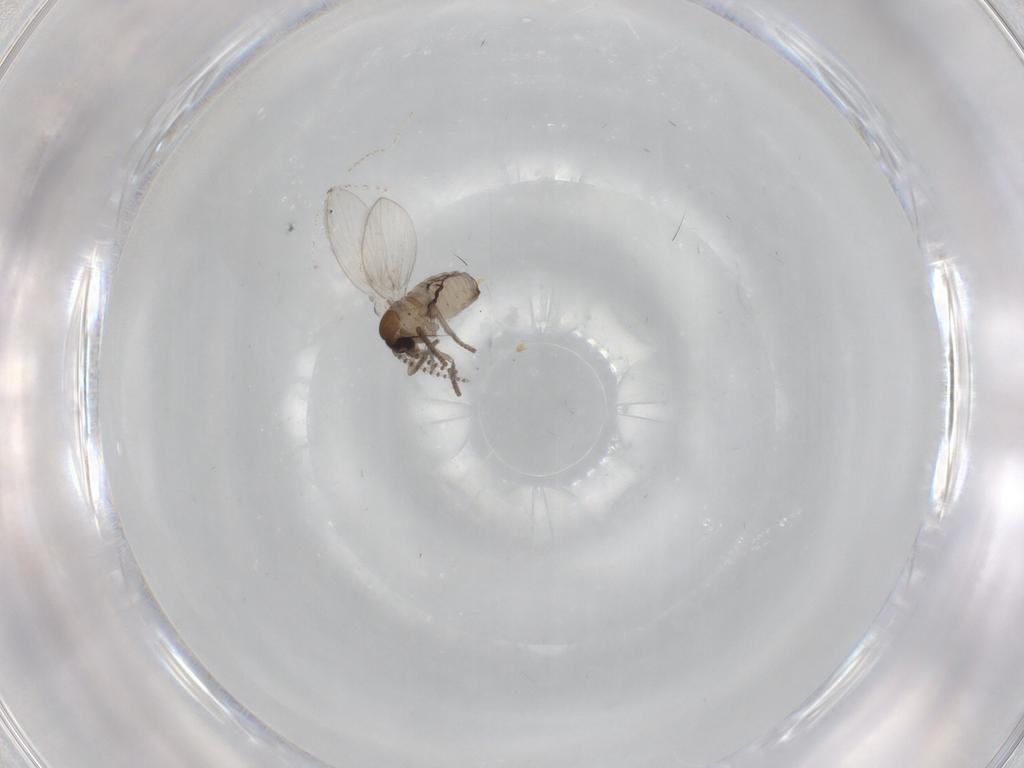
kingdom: Animalia
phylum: Arthropoda
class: Insecta
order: Diptera
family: Psychodidae
